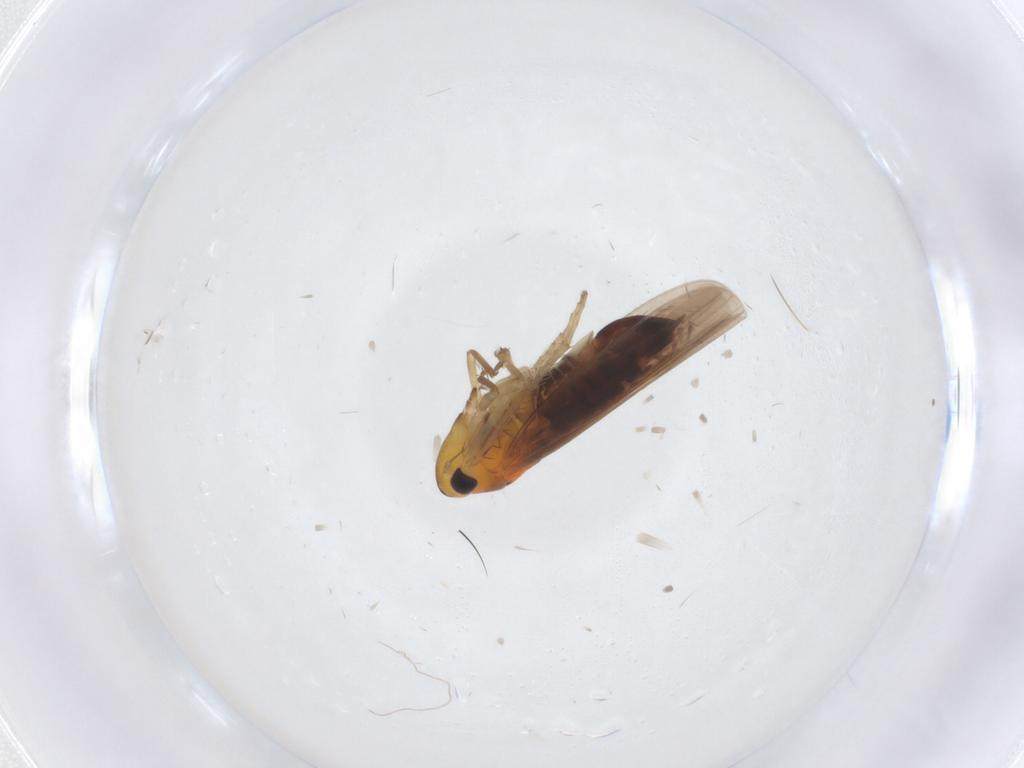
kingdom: Animalia
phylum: Arthropoda
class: Insecta
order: Hemiptera
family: Cicadellidae
